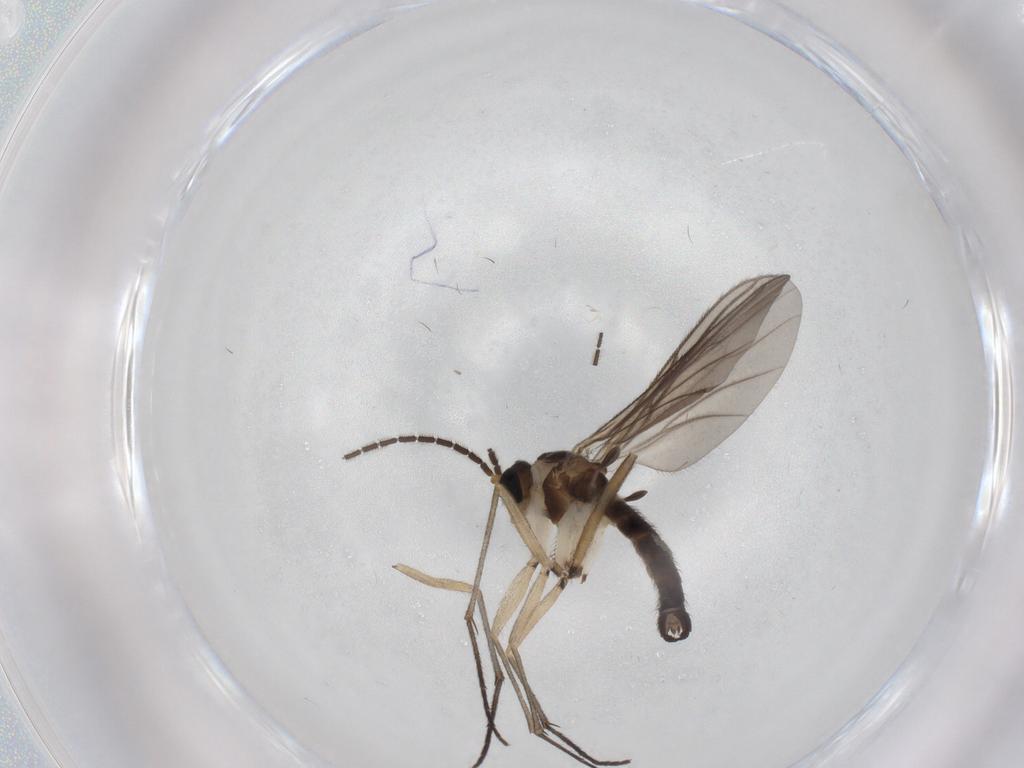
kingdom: Animalia
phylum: Arthropoda
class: Insecta
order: Diptera
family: Sciaridae
